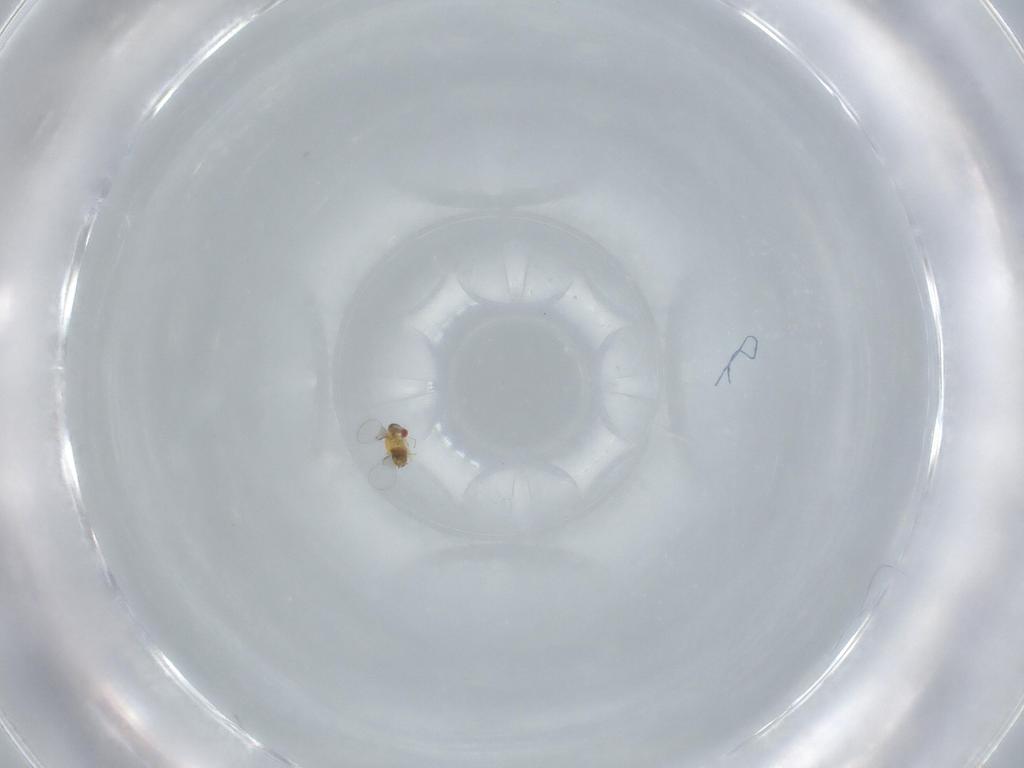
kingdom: Animalia
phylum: Arthropoda
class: Insecta
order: Hymenoptera
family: Trichogrammatidae
